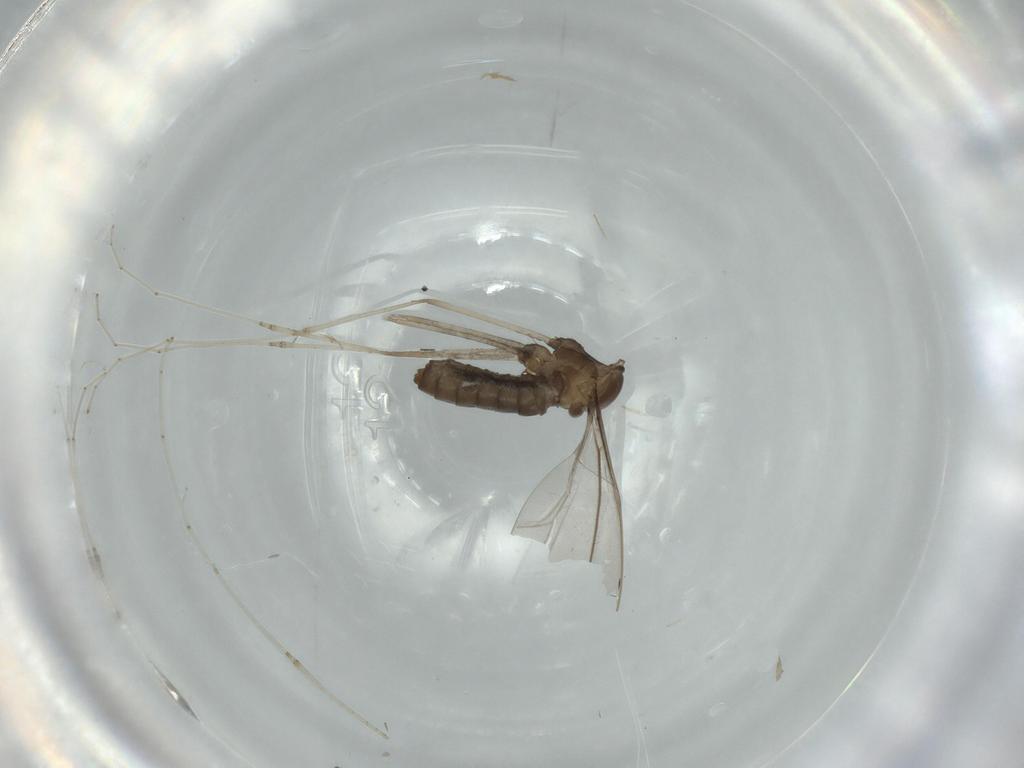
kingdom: Animalia
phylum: Arthropoda
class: Insecta
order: Diptera
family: Cecidomyiidae
